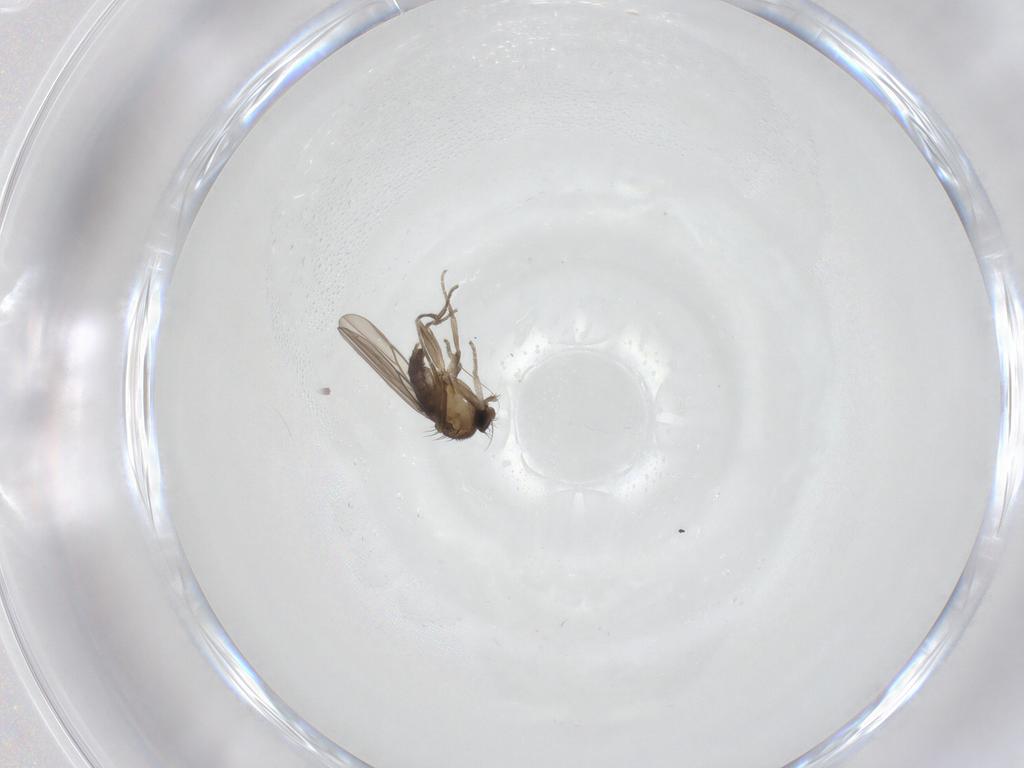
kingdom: Animalia
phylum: Arthropoda
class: Insecta
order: Diptera
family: Phoridae
